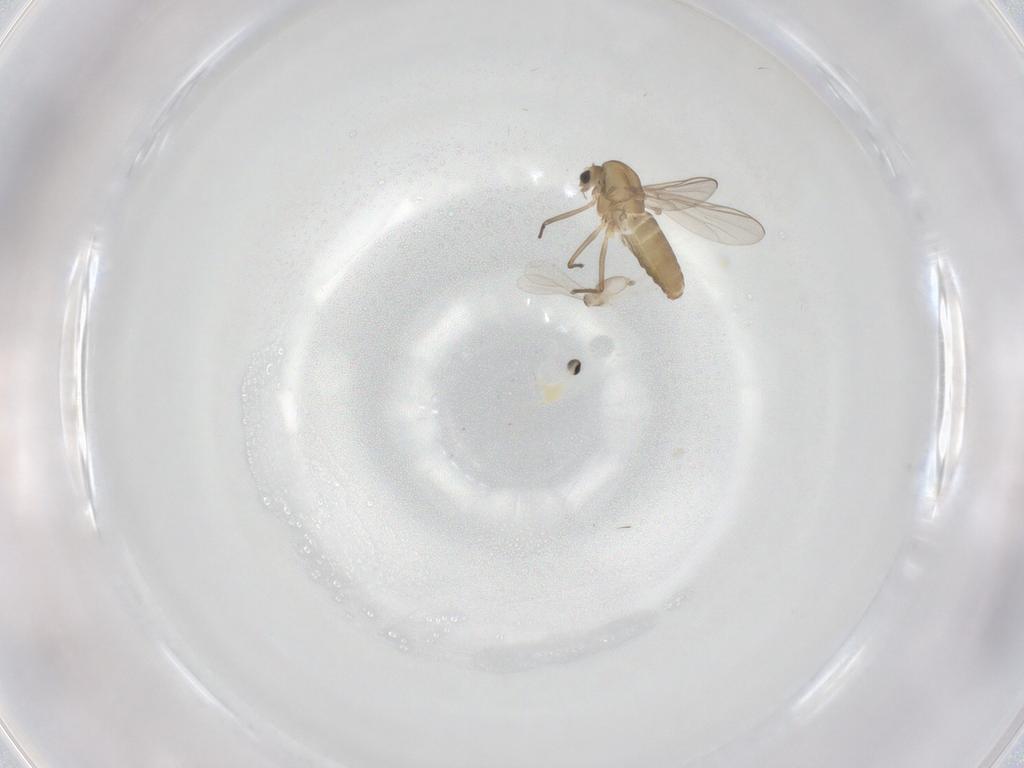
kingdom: Animalia
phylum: Arthropoda
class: Insecta
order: Diptera
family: Chironomidae
